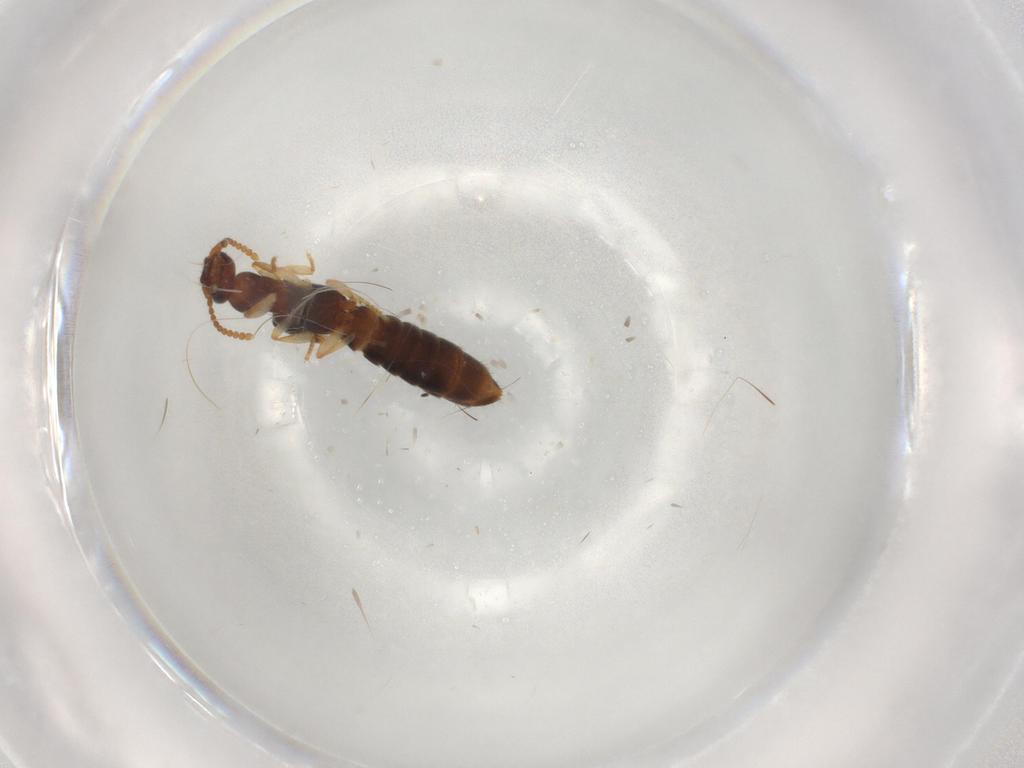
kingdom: Animalia
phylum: Arthropoda
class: Insecta
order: Coleoptera
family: Staphylinidae
